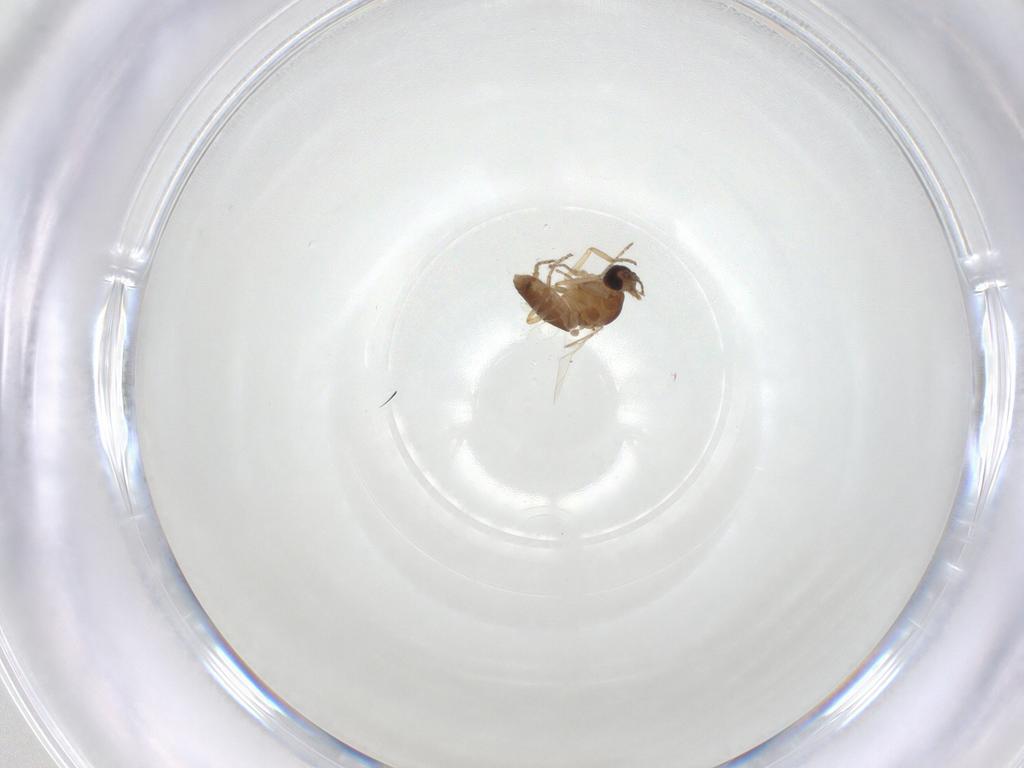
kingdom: Animalia
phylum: Arthropoda
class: Insecta
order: Diptera
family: Ceratopogonidae
